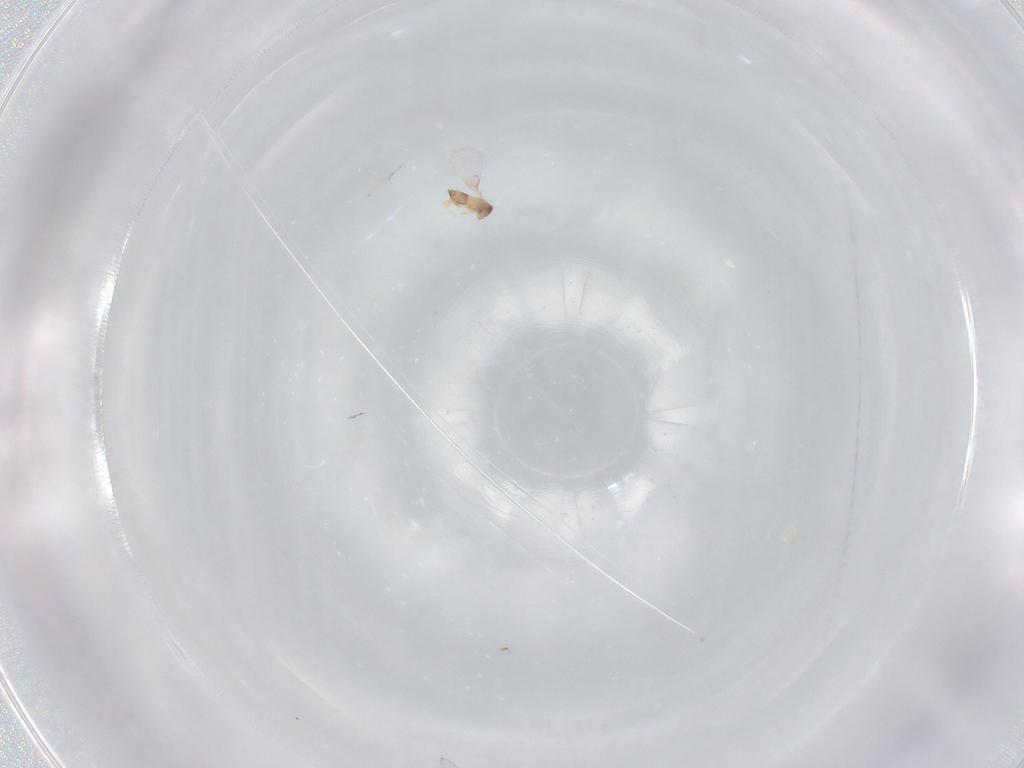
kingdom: Animalia
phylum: Arthropoda
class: Insecta
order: Hymenoptera
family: Trichogrammatidae
